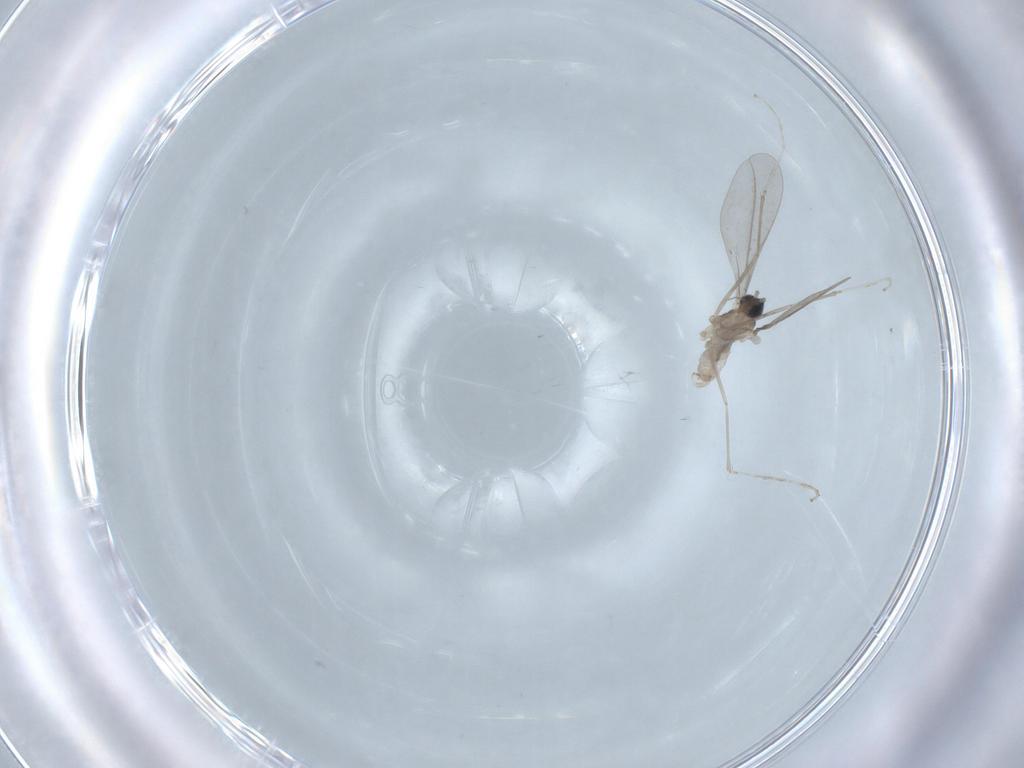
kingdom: Animalia
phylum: Arthropoda
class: Insecta
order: Diptera
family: Cecidomyiidae
